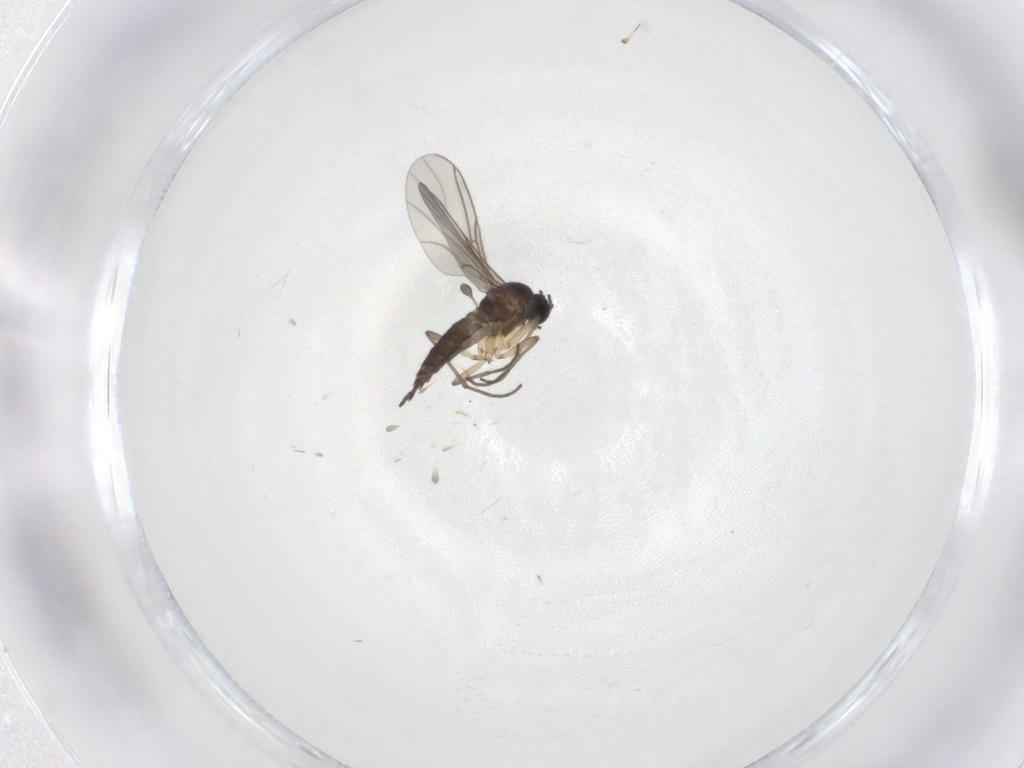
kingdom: Animalia
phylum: Arthropoda
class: Insecta
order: Diptera
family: Sciaridae
